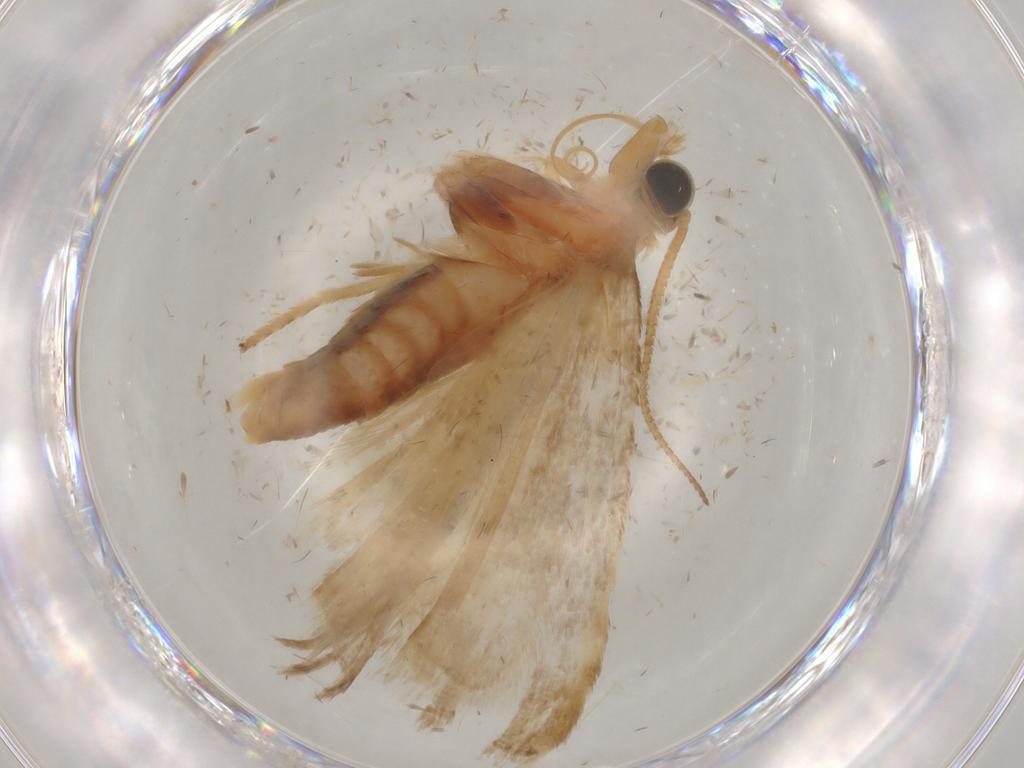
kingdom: Animalia
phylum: Arthropoda
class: Insecta
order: Lepidoptera
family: Pyralidae
